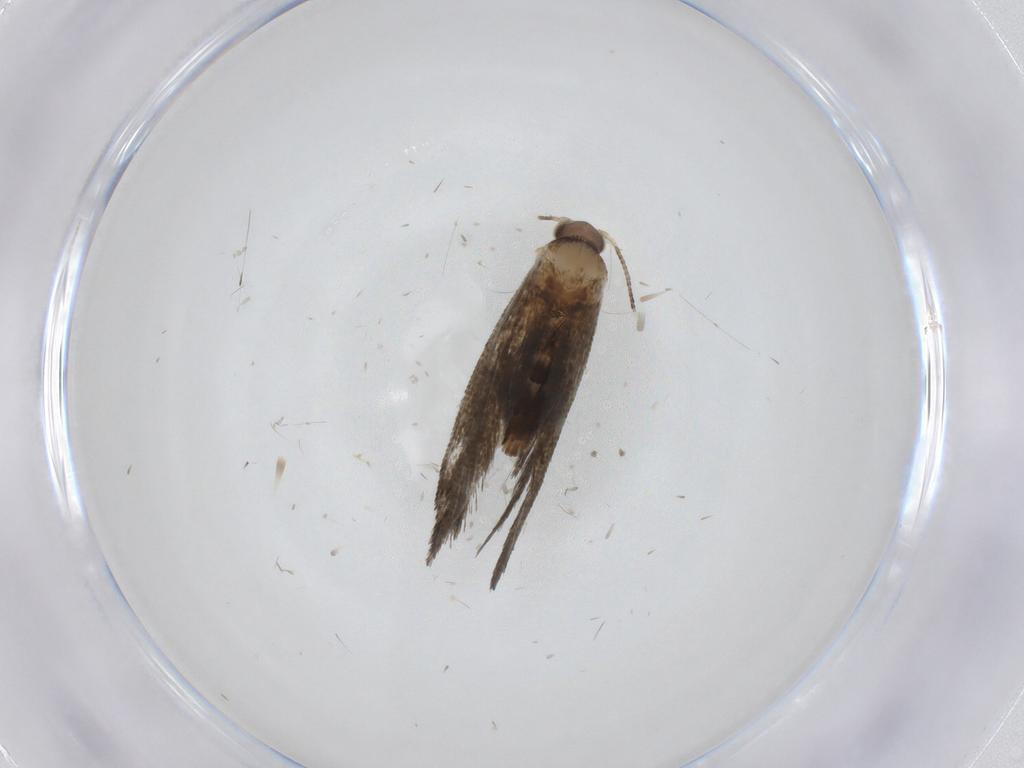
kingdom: Animalia
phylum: Arthropoda
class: Insecta
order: Lepidoptera
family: Tineidae
